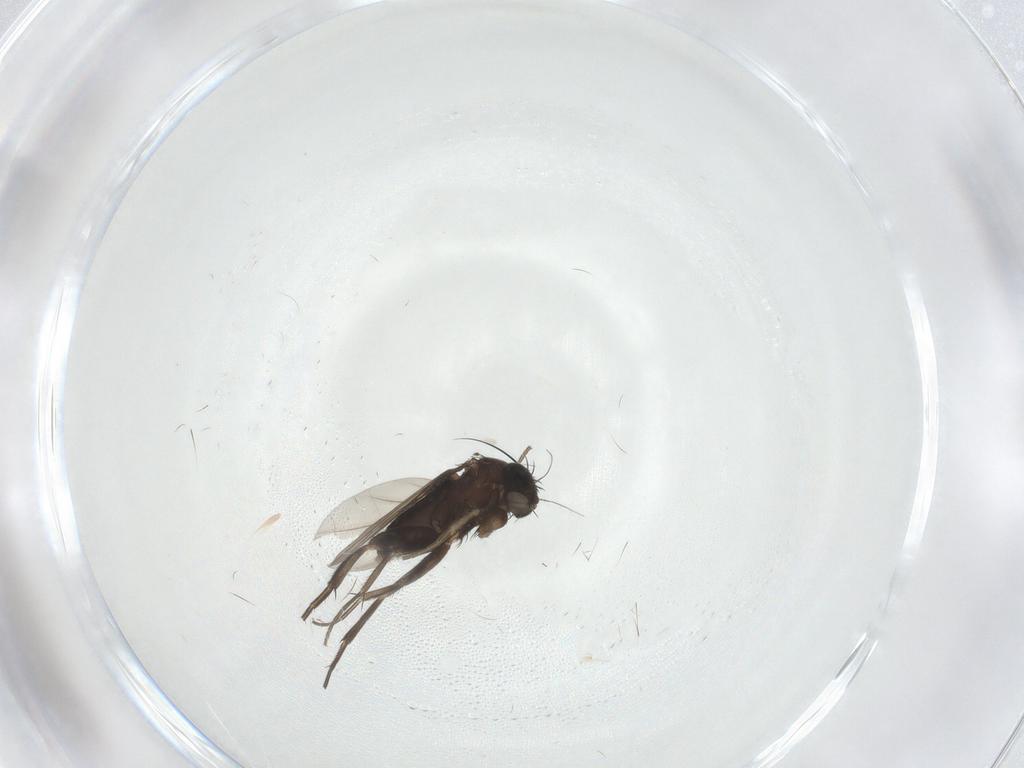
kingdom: Animalia
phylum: Arthropoda
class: Insecta
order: Diptera
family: Phoridae
